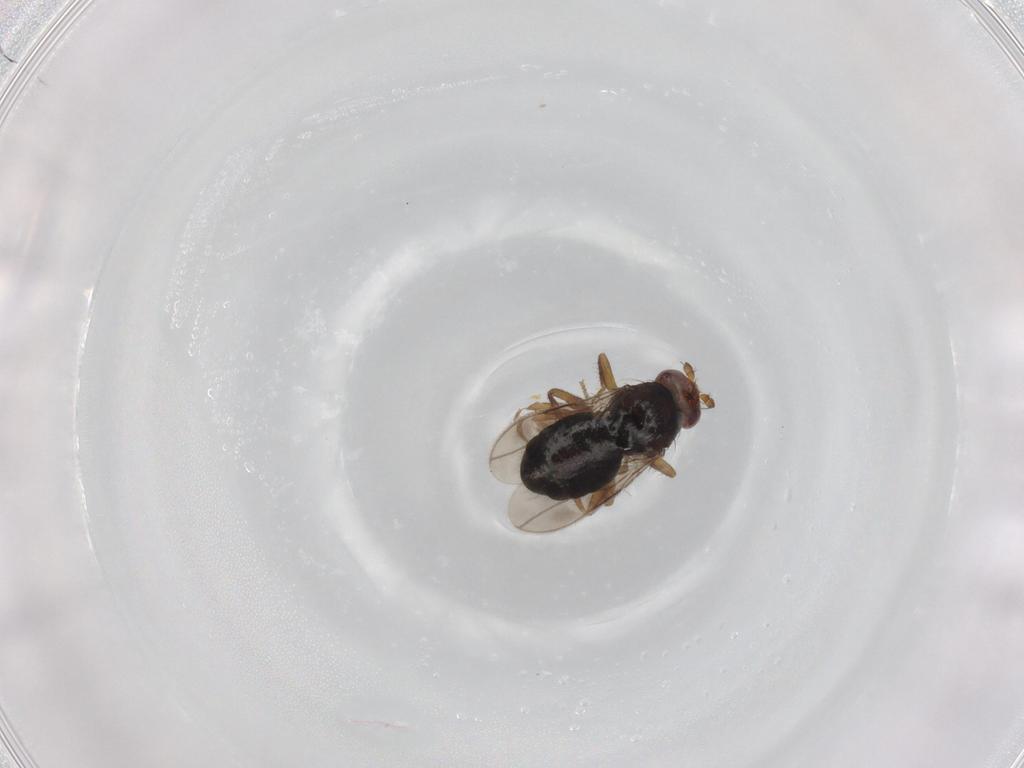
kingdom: Animalia
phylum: Arthropoda
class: Insecta
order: Diptera
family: Sphaeroceridae
